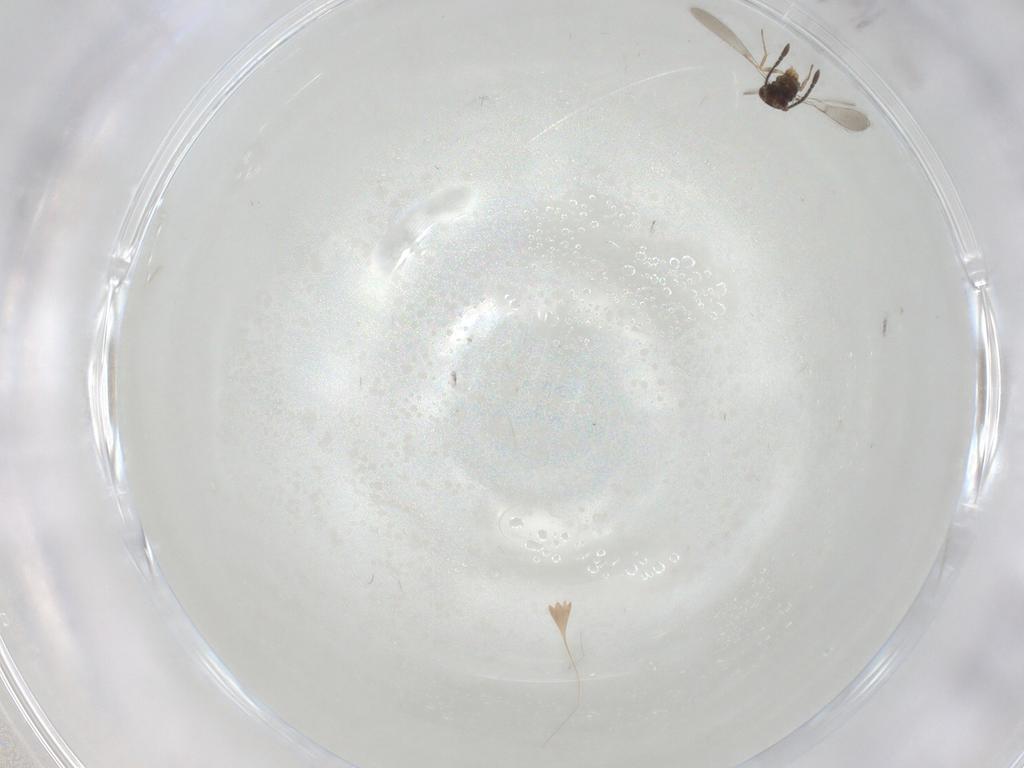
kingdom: Animalia
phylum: Arthropoda
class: Insecta
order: Hymenoptera
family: Mymaridae
